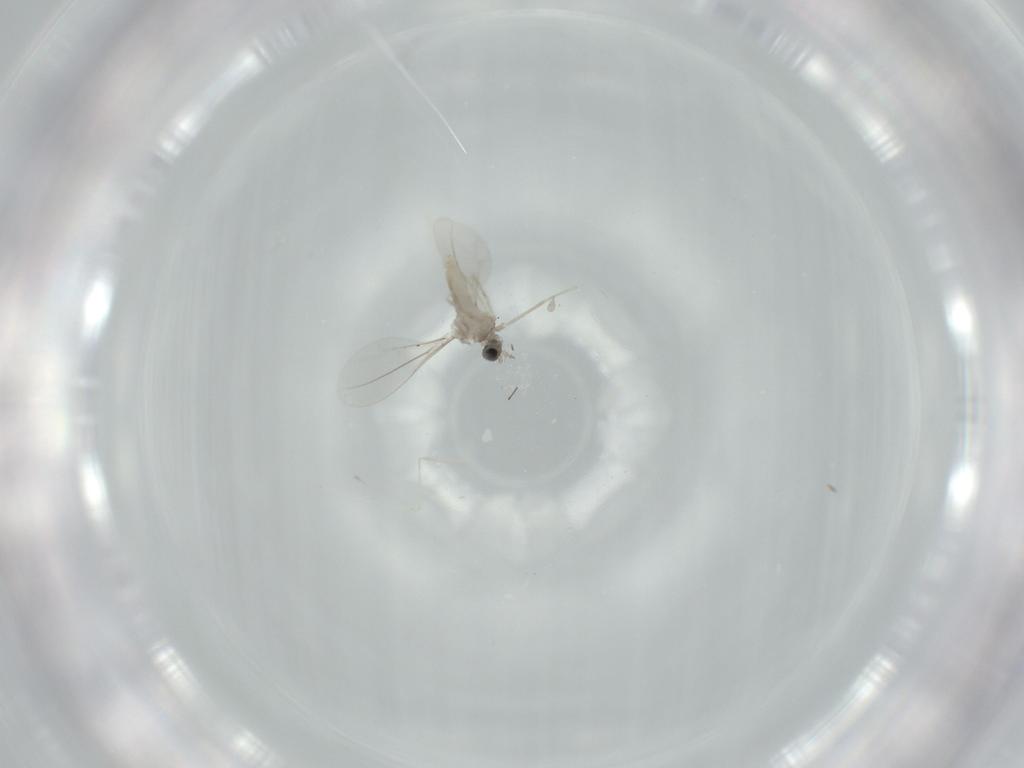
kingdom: Animalia
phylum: Arthropoda
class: Insecta
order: Diptera
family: Cecidomyiidae
